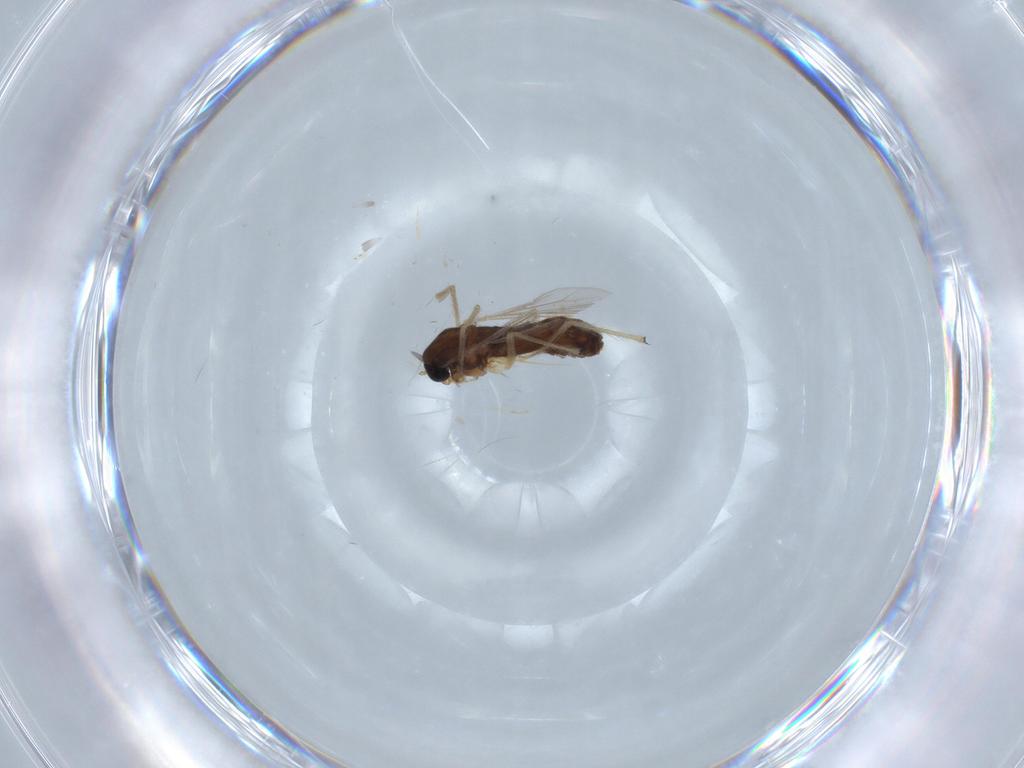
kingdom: Animalia
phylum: Arthropoda
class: Insecta
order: Diptera
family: Chironomidae
